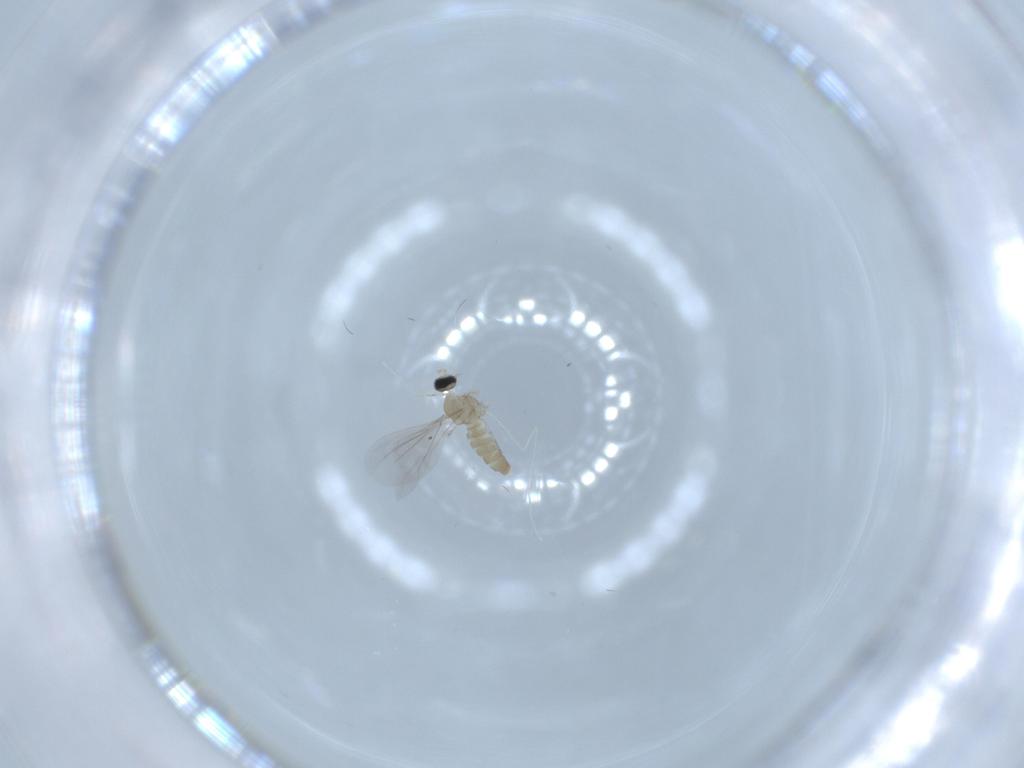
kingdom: Animalia
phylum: Arthropoda
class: Insecta
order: Diptera
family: Cecidomyiidae
